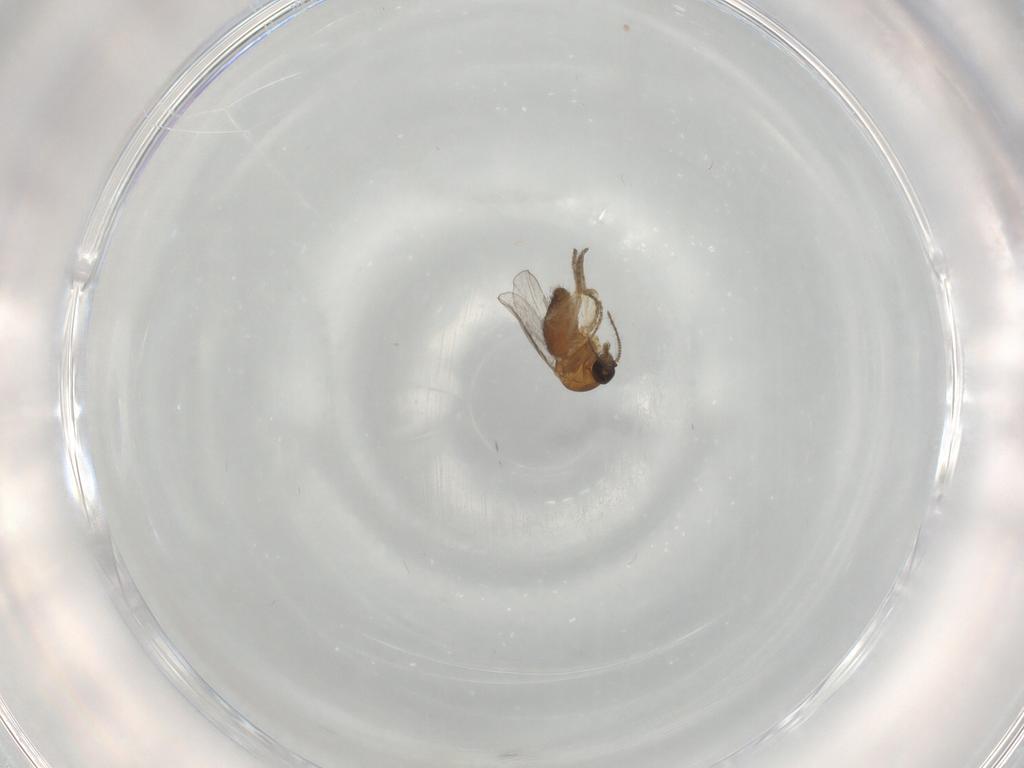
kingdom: Animalia
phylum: Arthropoda
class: Insecta
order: Diptera
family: Ceratopogonidae
